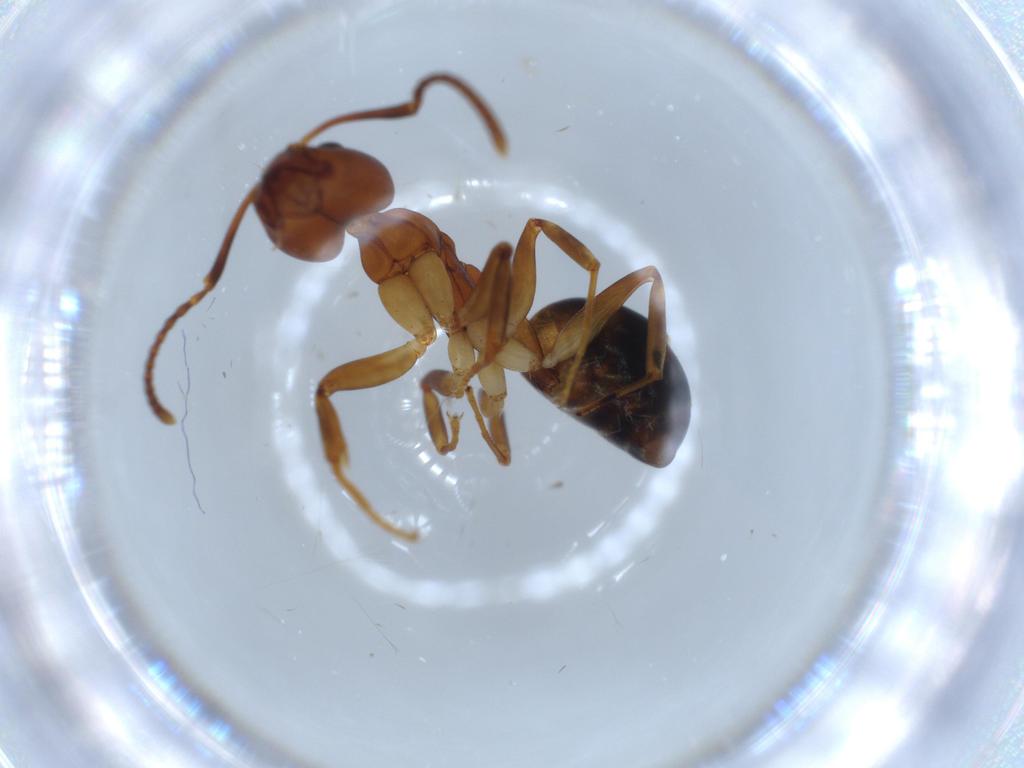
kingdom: Animalia
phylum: Arthropoda
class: Insecta
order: Hymenoptera
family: Formicidae
